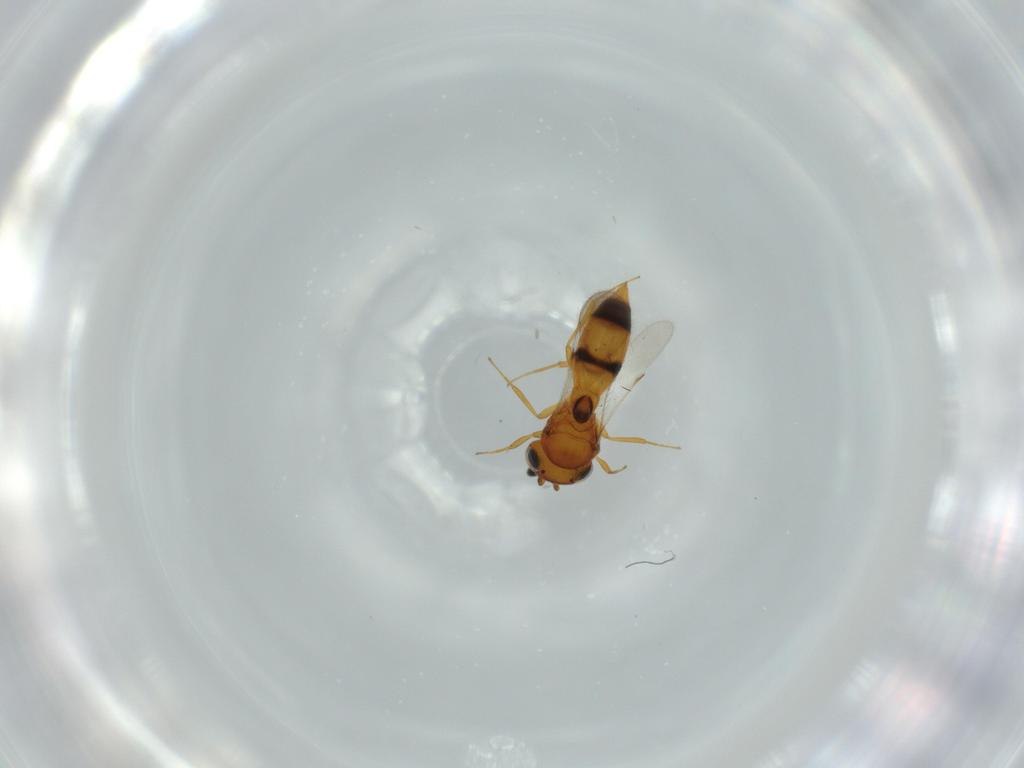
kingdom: Animalia
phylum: Arthropoda
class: Insecta
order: Hymenoptera
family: Scelionidae
